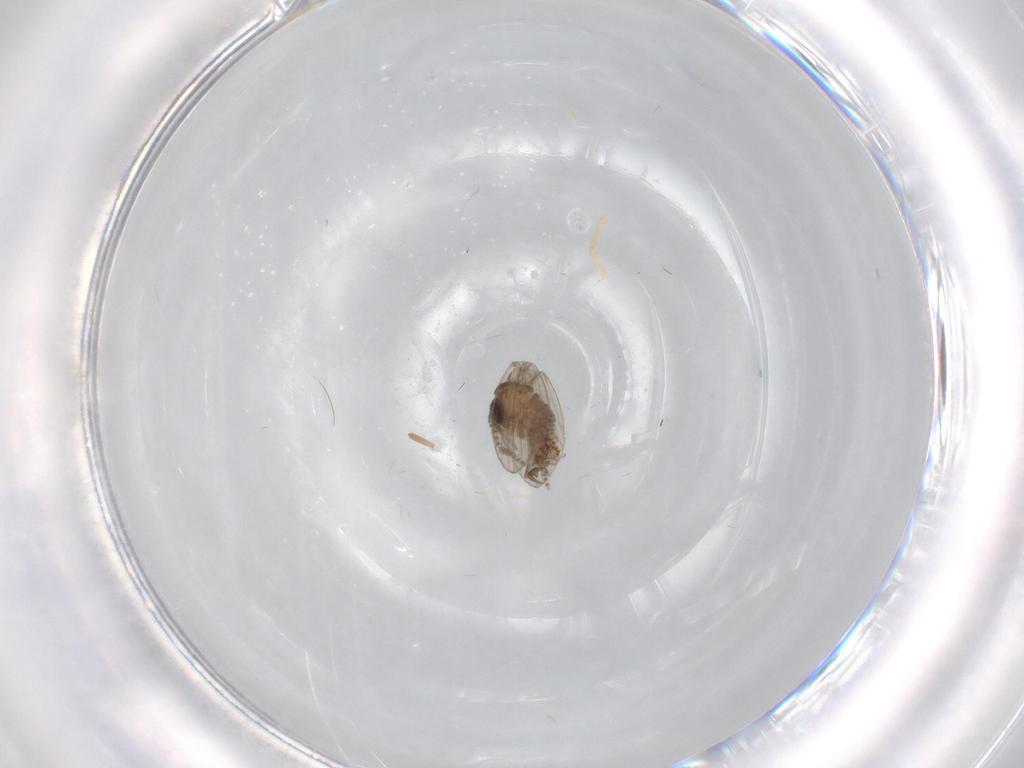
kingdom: Animalia
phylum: Arthropoda
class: Insecta
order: Diptera
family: Psychodidae
